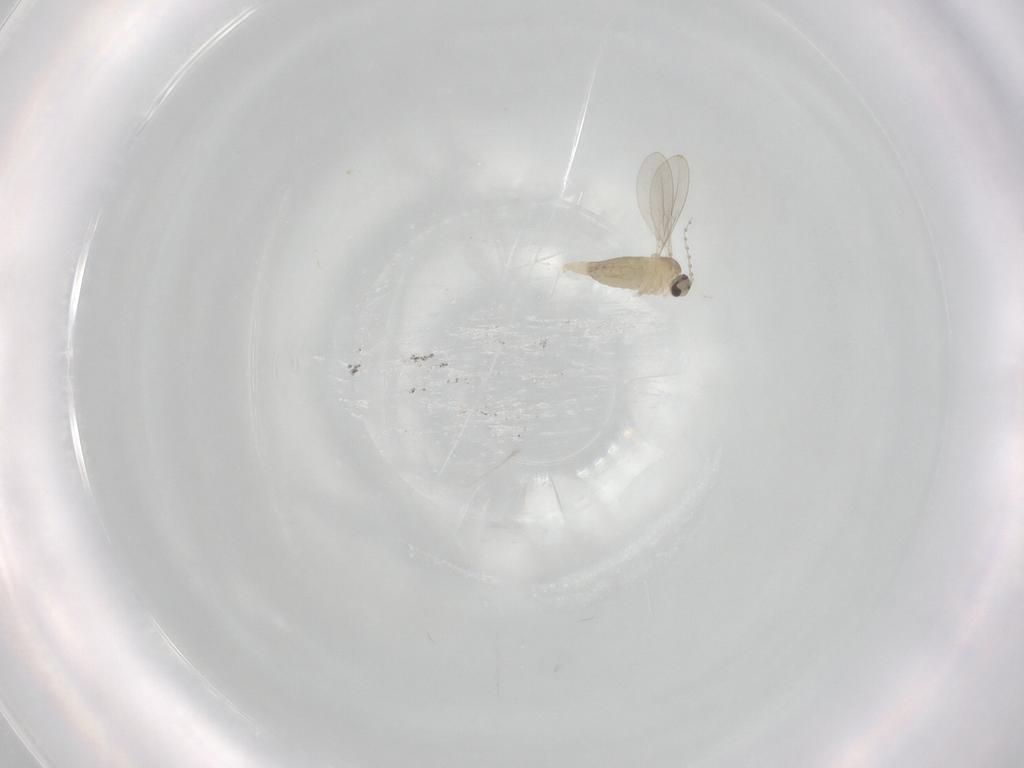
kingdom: Animalia
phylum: Arthropoda
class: Insecta
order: Diptera
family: Cecidomyiidae
